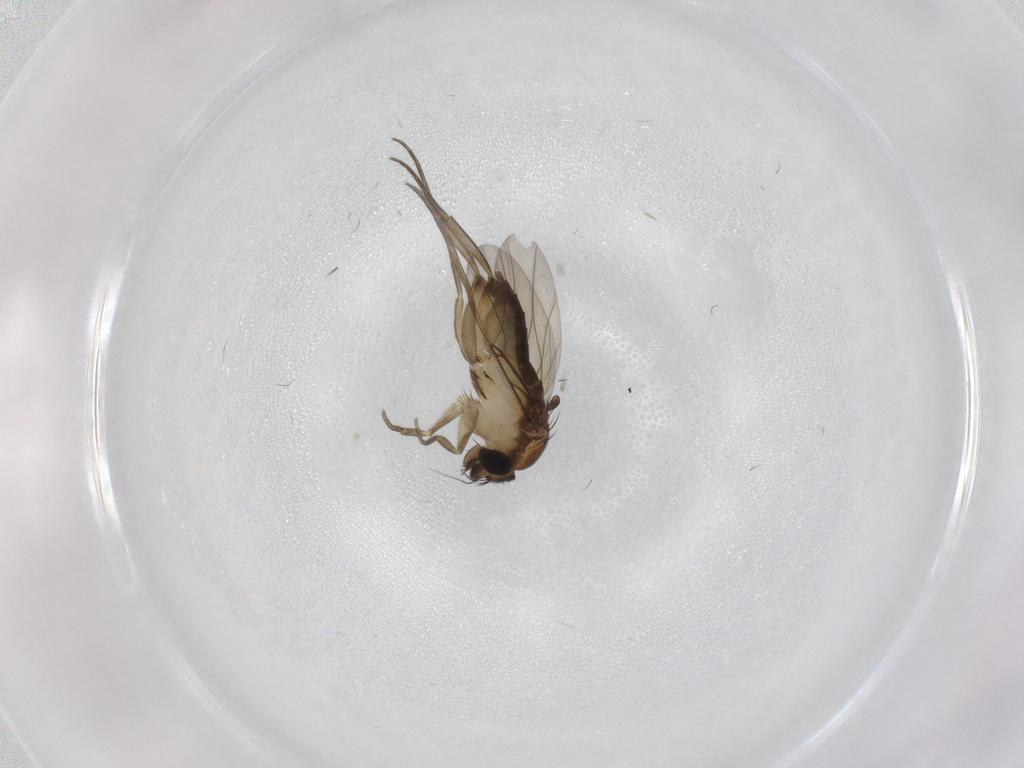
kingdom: Animalia
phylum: Arthropoda
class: Insecta
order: Diptera
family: Phoridae
